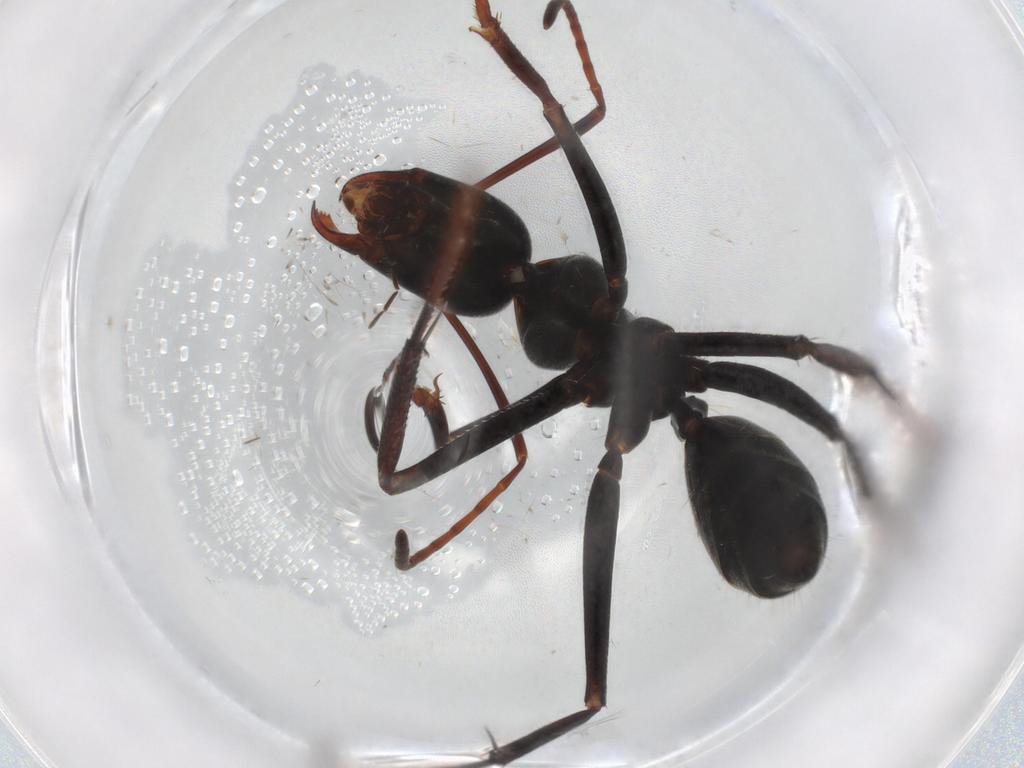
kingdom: Animalia
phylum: Arthropoda
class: Insecta
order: Hymenoptera
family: Formicidae
